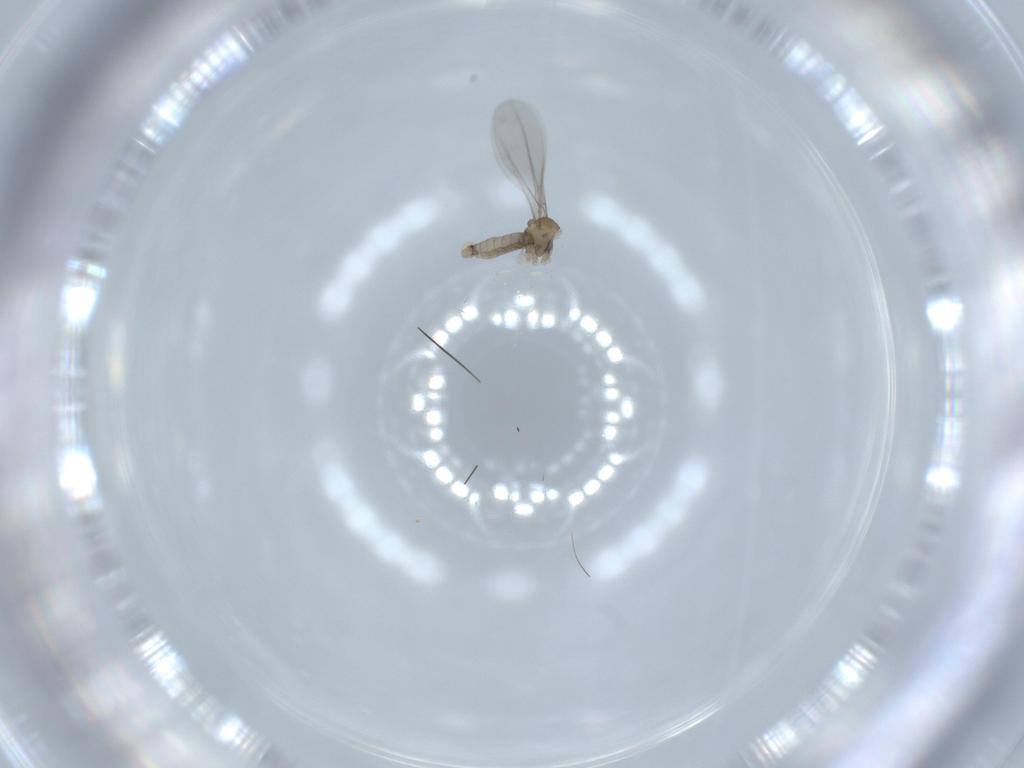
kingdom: Animalia
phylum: Arthropoda
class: Insecta
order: Diptera
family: Cecidomyiidae
